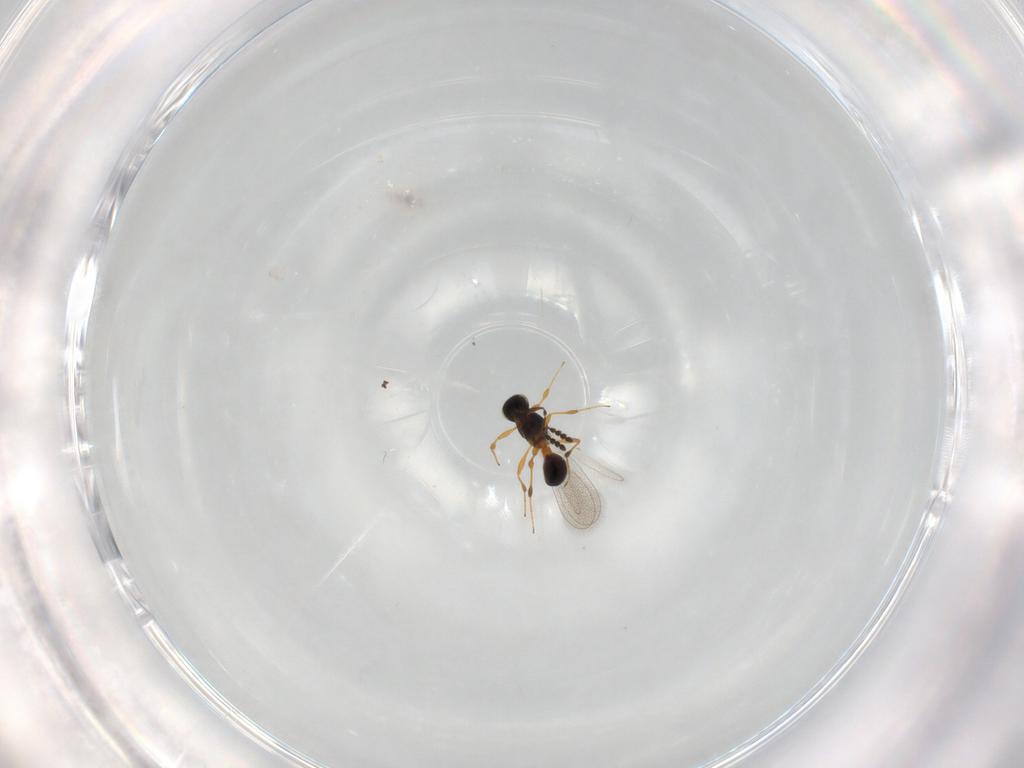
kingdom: Animalia
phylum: Arthropoda
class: Insecta
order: Hymenoptera
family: Platygastridae
